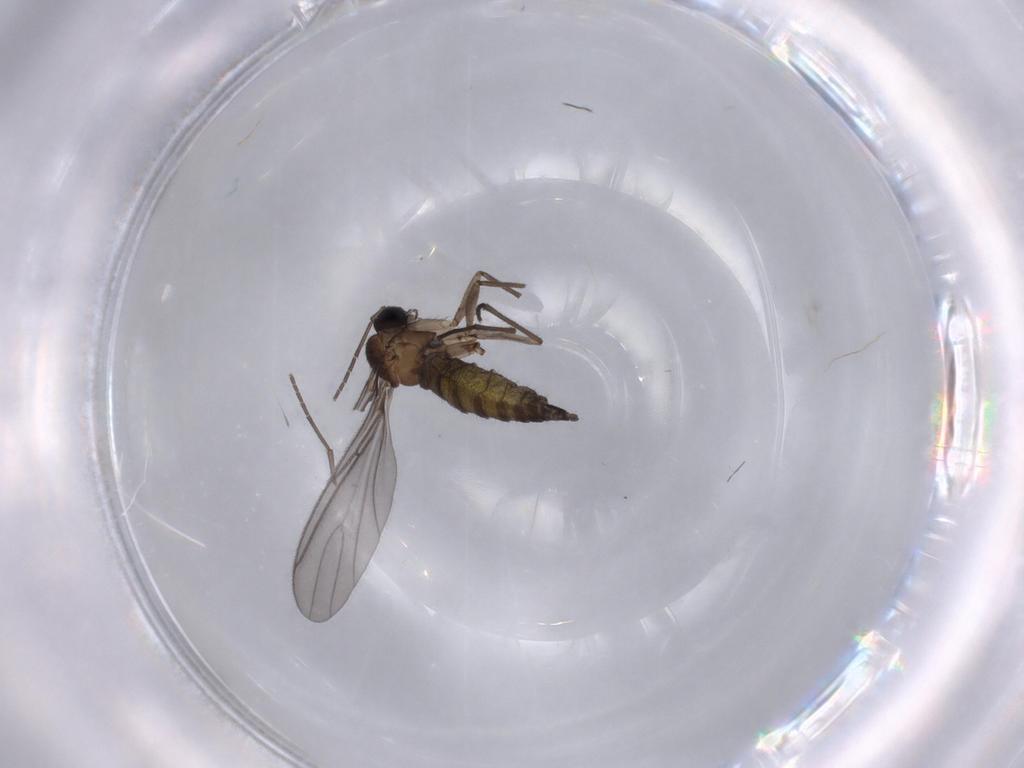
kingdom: Animalia
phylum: Arthropoda
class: Insecta
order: Diptera
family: Sciaridae
